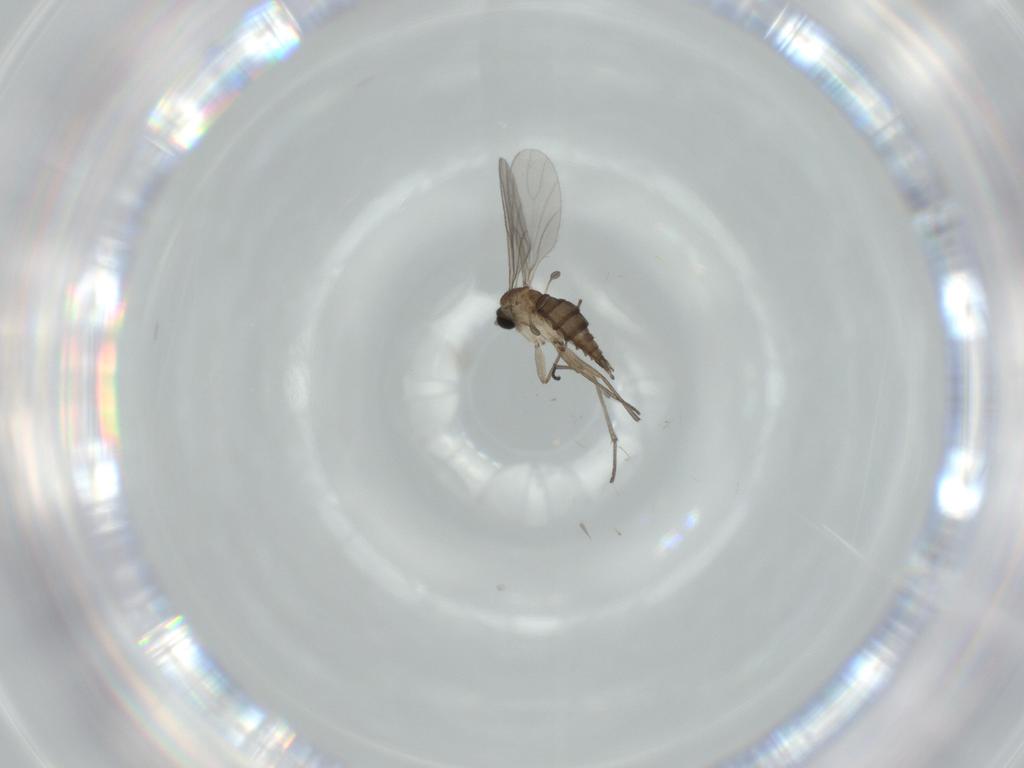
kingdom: Animalia
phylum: Arthropoda
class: Insecta
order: Diptera
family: Sciaridae
